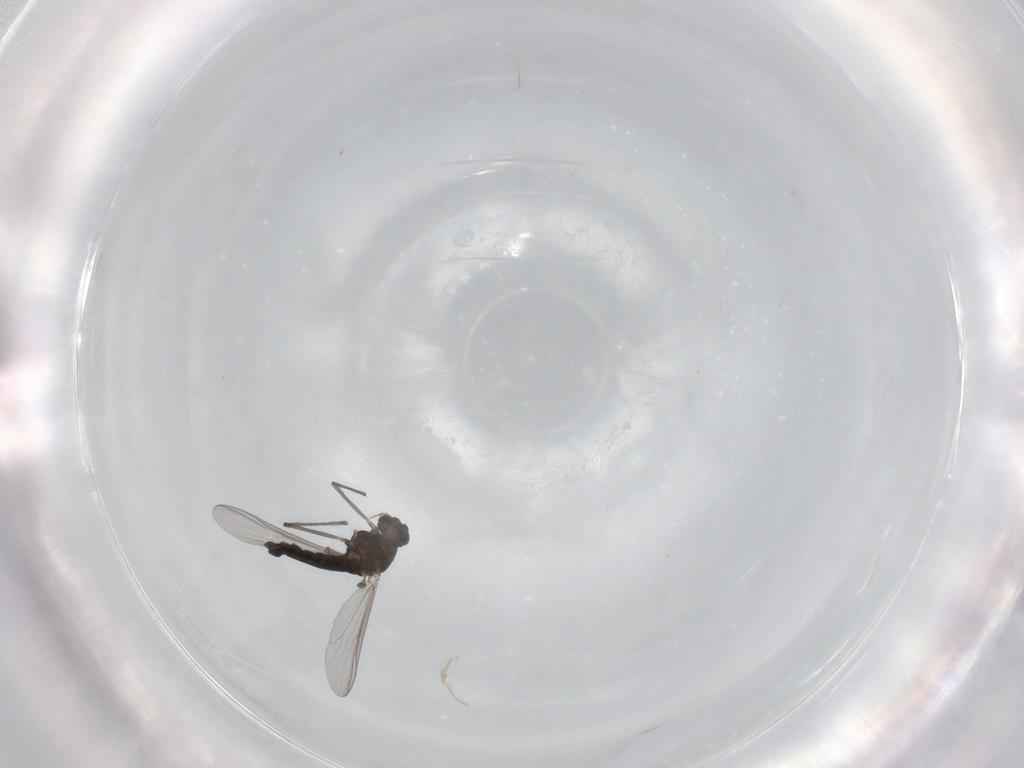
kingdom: Animalia
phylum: Arthropoda
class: Insecta
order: Diptera
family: Chironomidae
